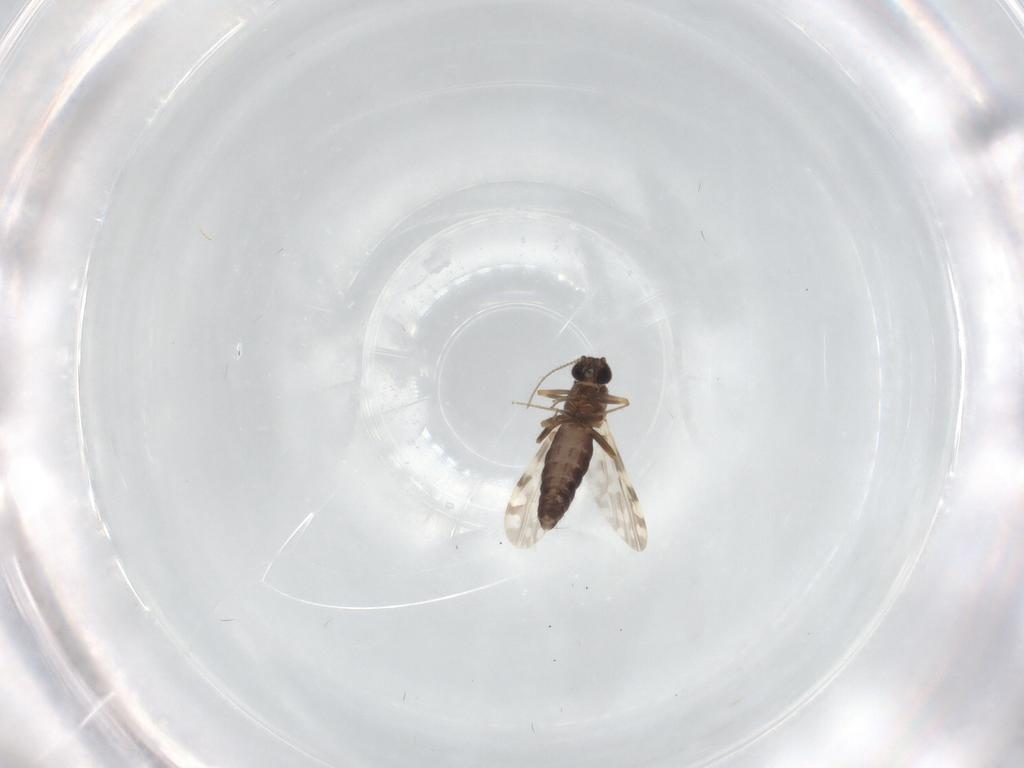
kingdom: Animalia
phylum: Arthropoda
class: Insecta
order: Diptera
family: Ceratopogonidae
